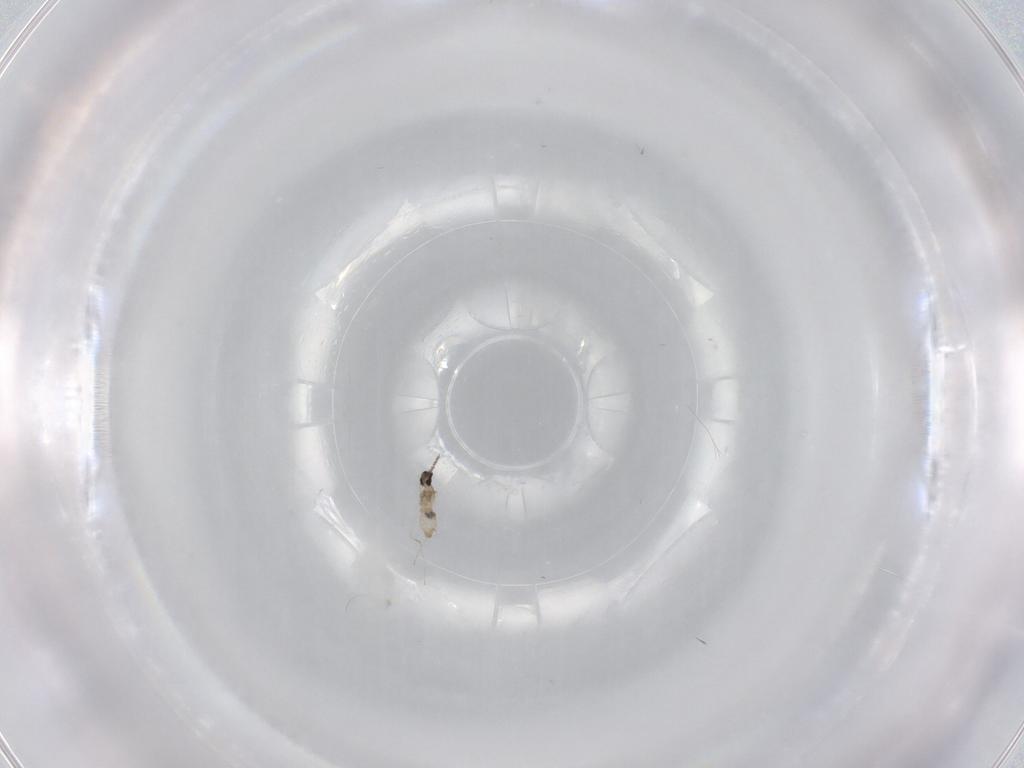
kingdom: Animalia
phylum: Arthropoda
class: Insecta
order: Diptera
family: Cecidomyiidae
